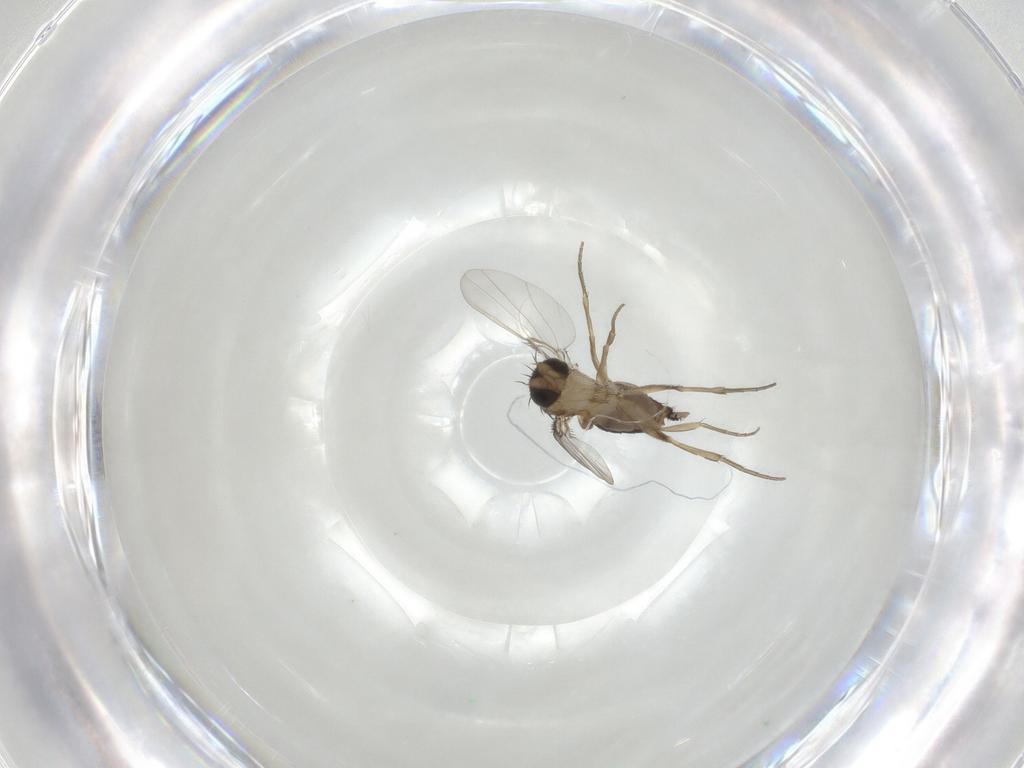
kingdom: Animalia
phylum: Arthropoda
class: Insecta
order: Diptera
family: Phoridae
